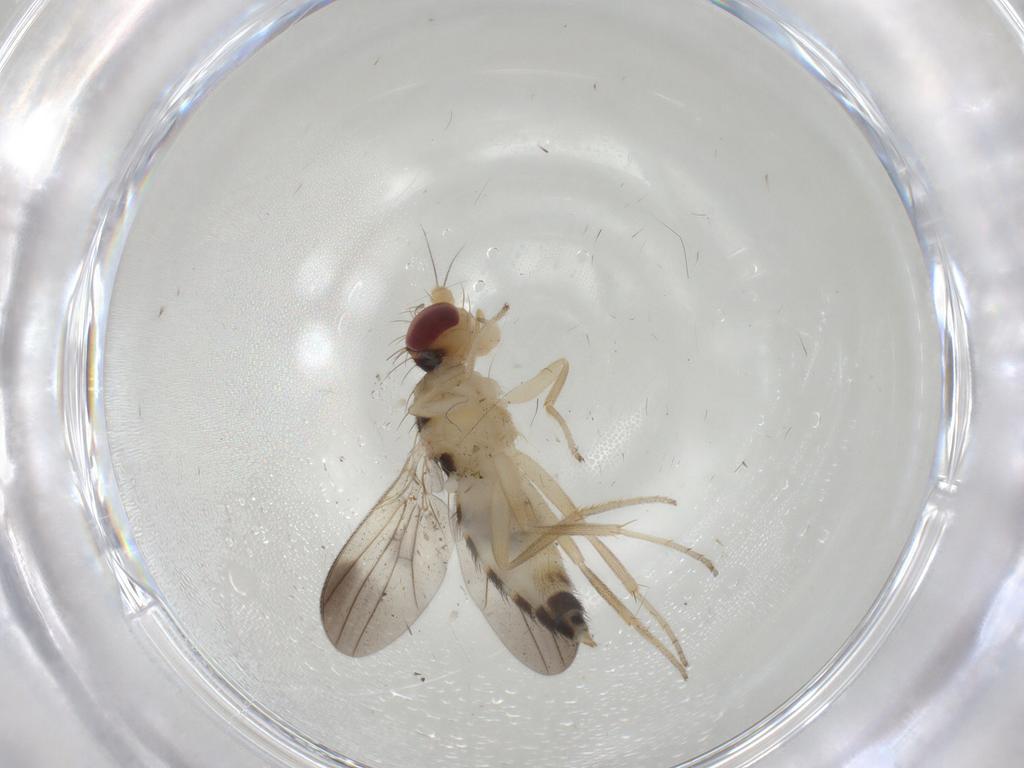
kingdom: Animalia
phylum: Arthropoda
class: Insecta
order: Diptera
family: Clusiidae
